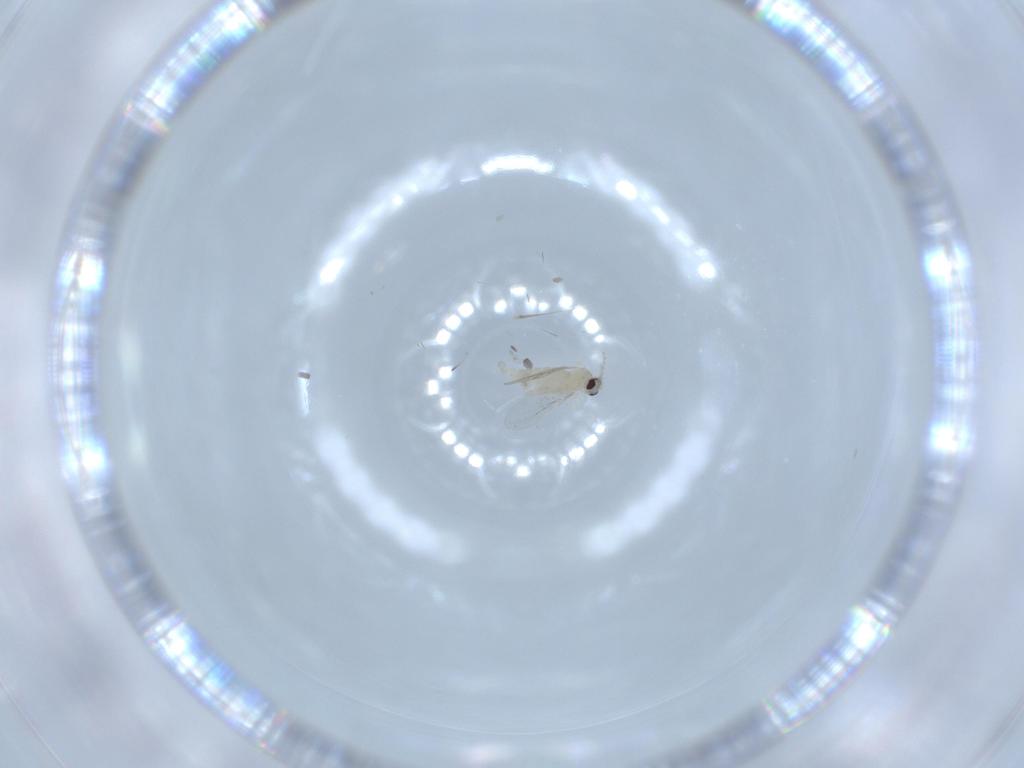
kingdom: Animalia
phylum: Arthropoda
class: Insecta
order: Diptera
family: Cecidomyiidae
